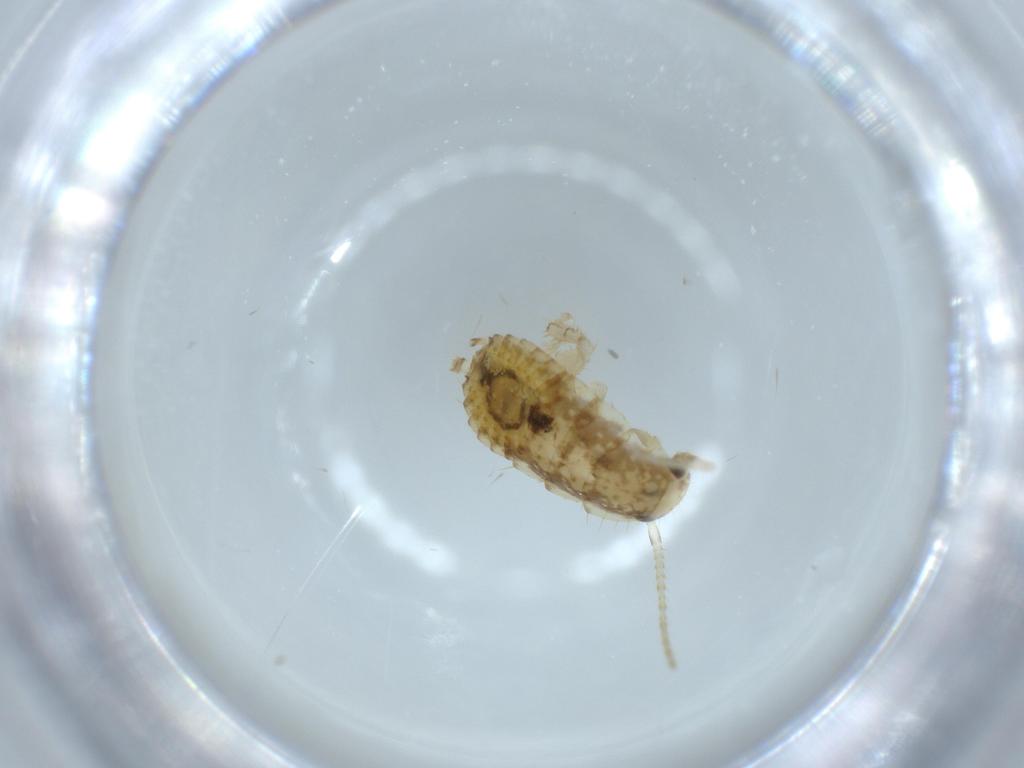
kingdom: Animalia
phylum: Arthropoda
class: Insecta
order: Blattodea
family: Ectobiidae
